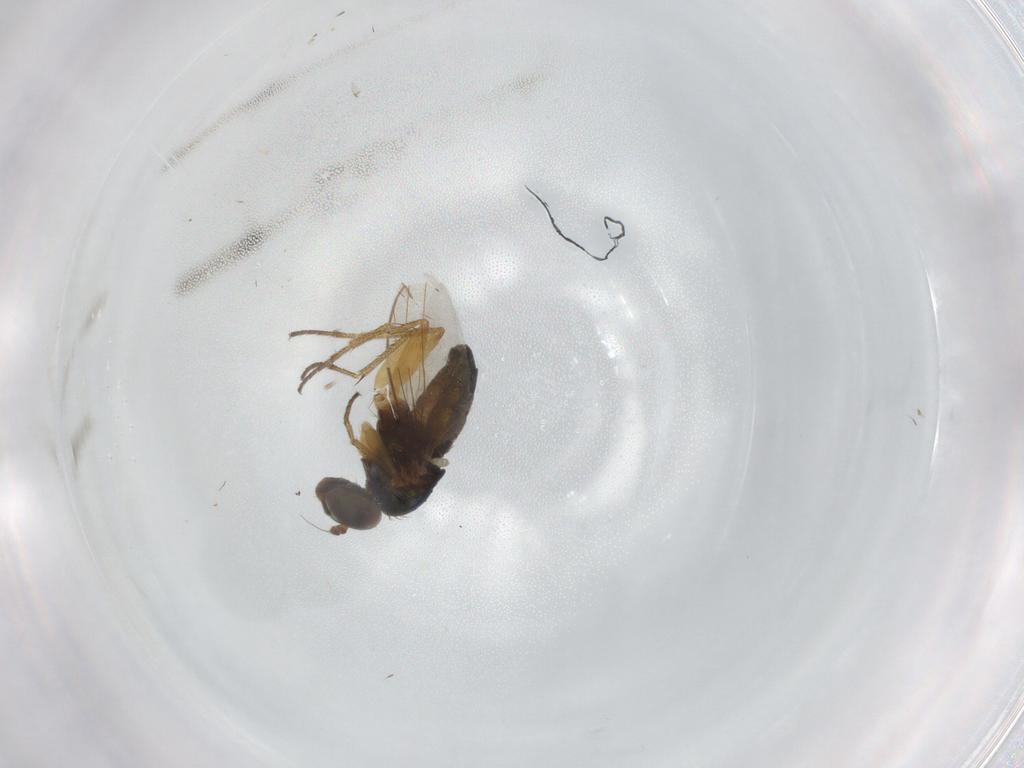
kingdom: Animalia
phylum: Arthropoda
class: Insecta
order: Diptera
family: Dolichopodidae
